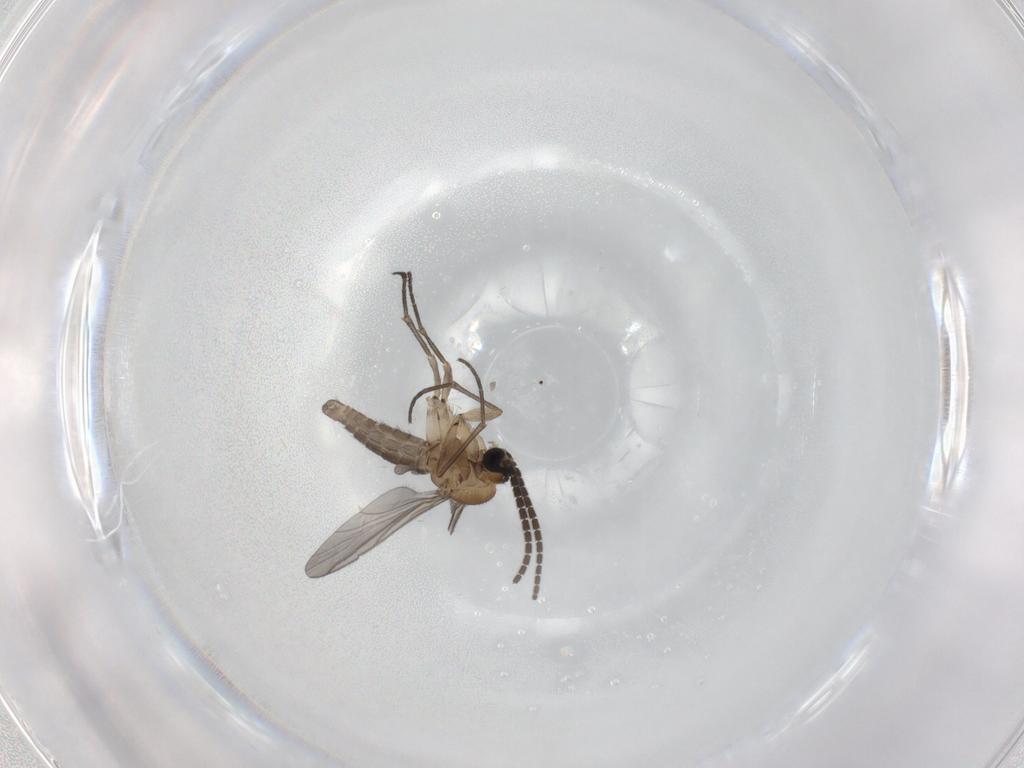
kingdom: Animalia
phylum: Arthropoda
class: Insecta
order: Diptera
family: Sciaridae
